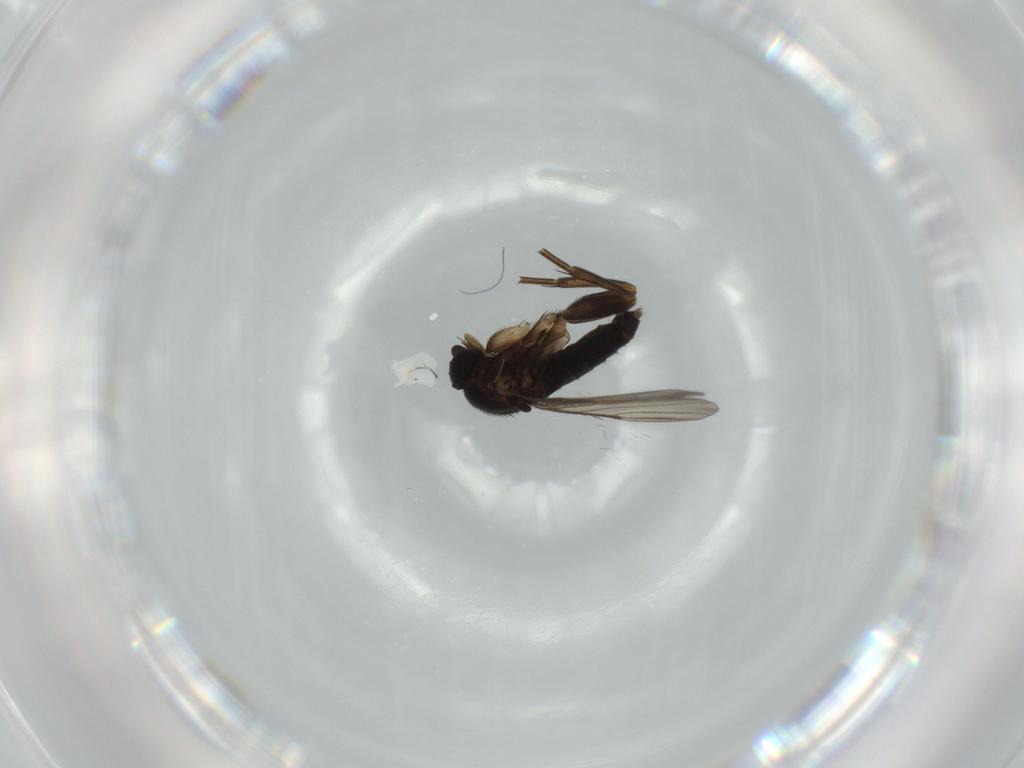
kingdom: Animalia
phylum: Arthropoda
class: Insecta
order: Diptera
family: Phoridae
